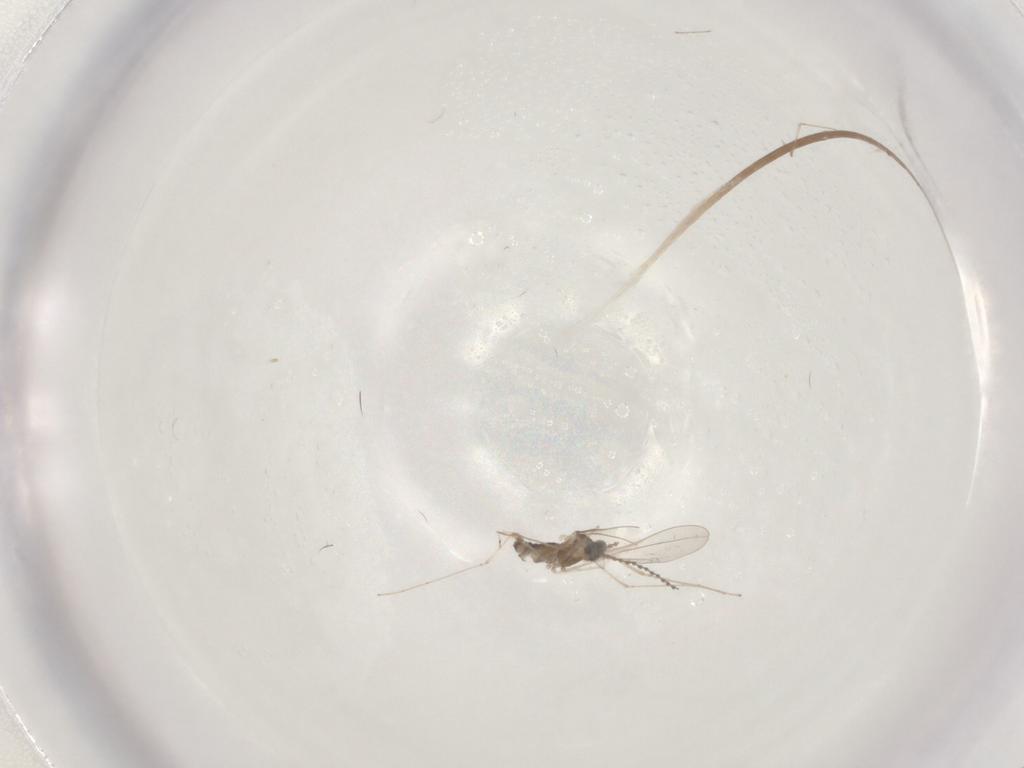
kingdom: Animalia
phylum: Arthropoda
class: Insecta
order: Diptera
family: Cecidomyiidae
